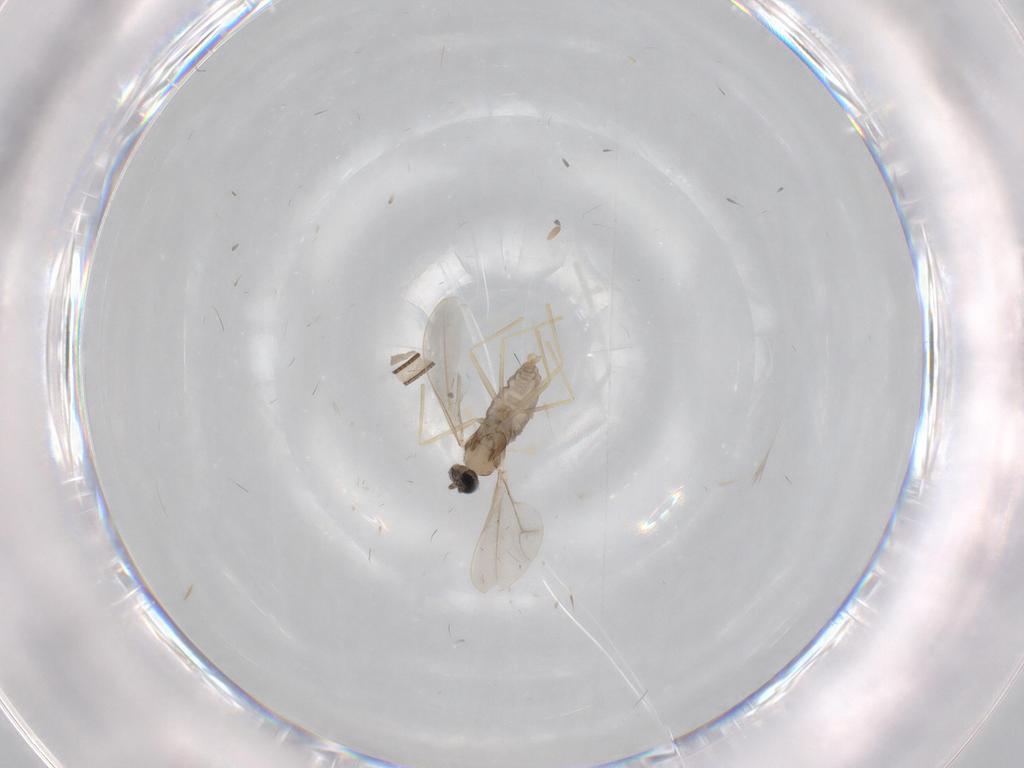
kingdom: Animalia
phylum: Arthropoda
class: Insecta
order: Diptera
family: Cecidomyiidae
